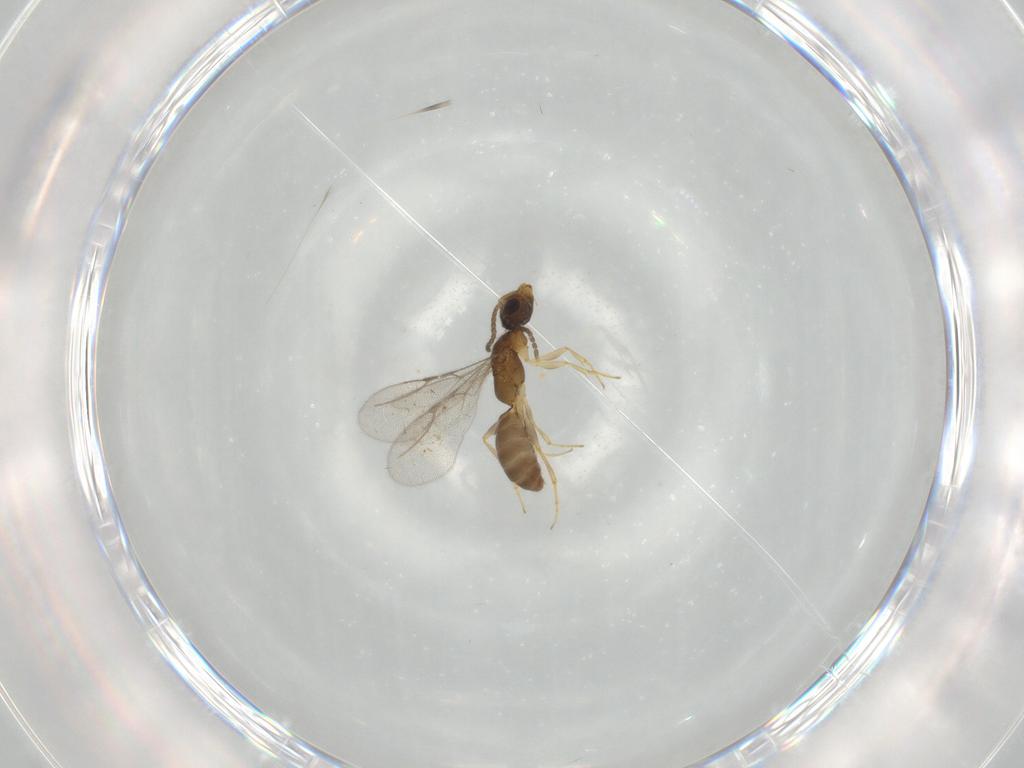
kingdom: Animalia
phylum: Arthropoda
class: Insecta
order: Hymenoptera
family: Bethylidae
